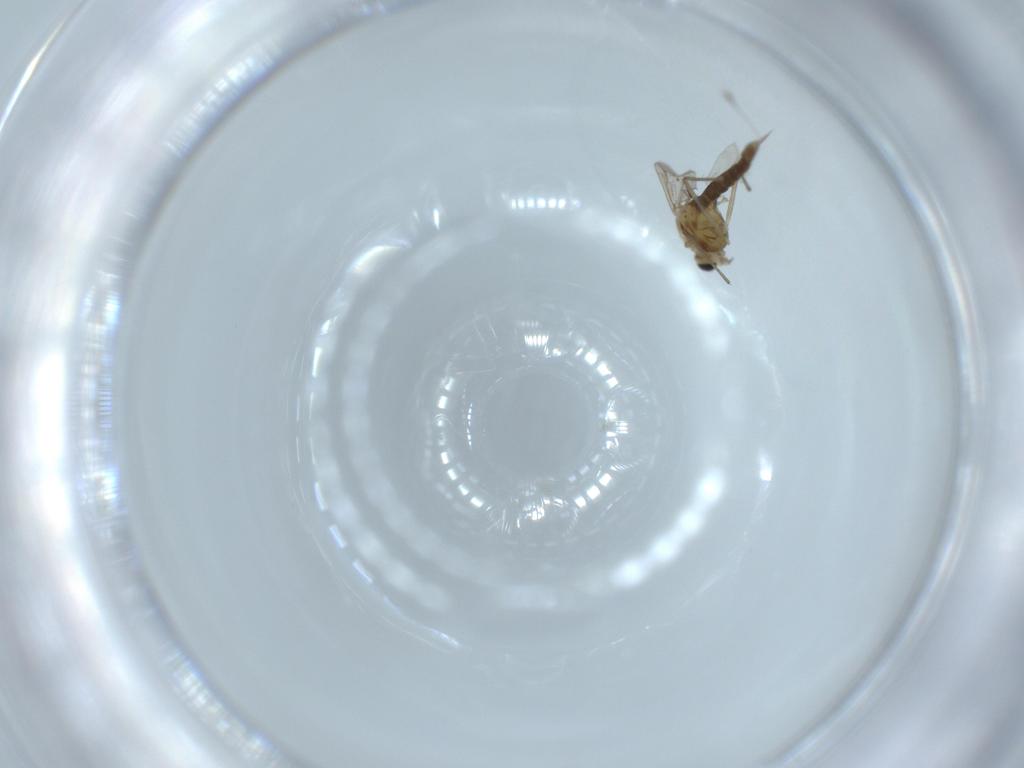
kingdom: Animalia
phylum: Arthropoda
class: Insecta
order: Diptera
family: Chironomidae
